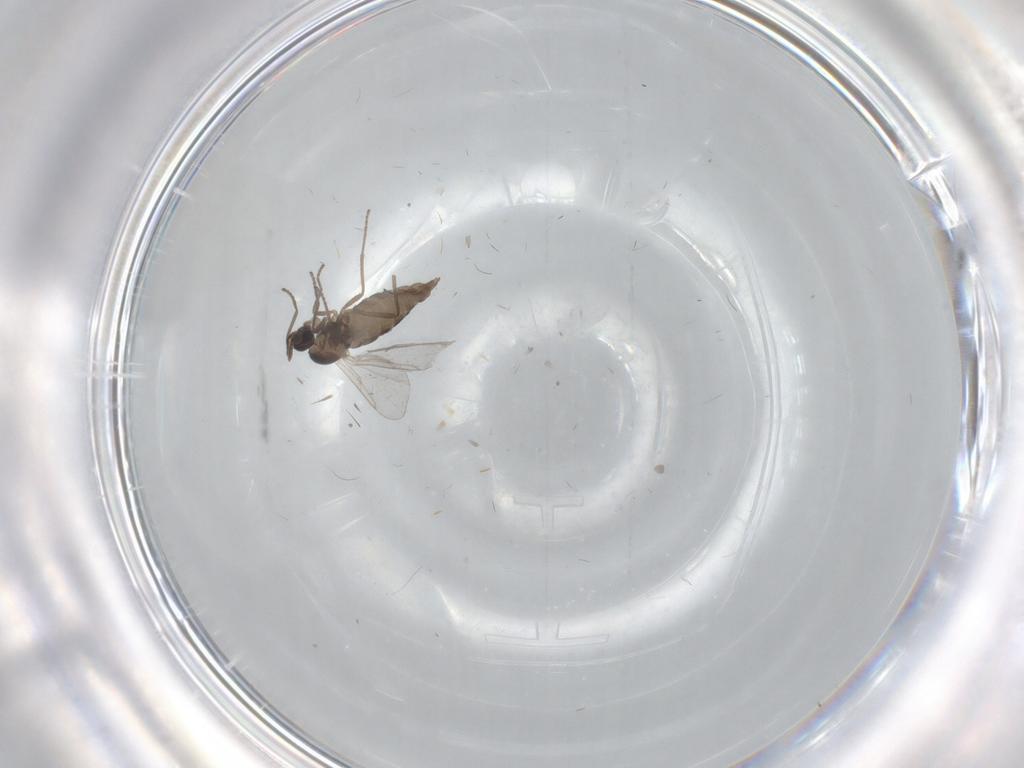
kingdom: Animalia
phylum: Arthropoda
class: Insecta
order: Diptera
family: Cecidomyiidae
